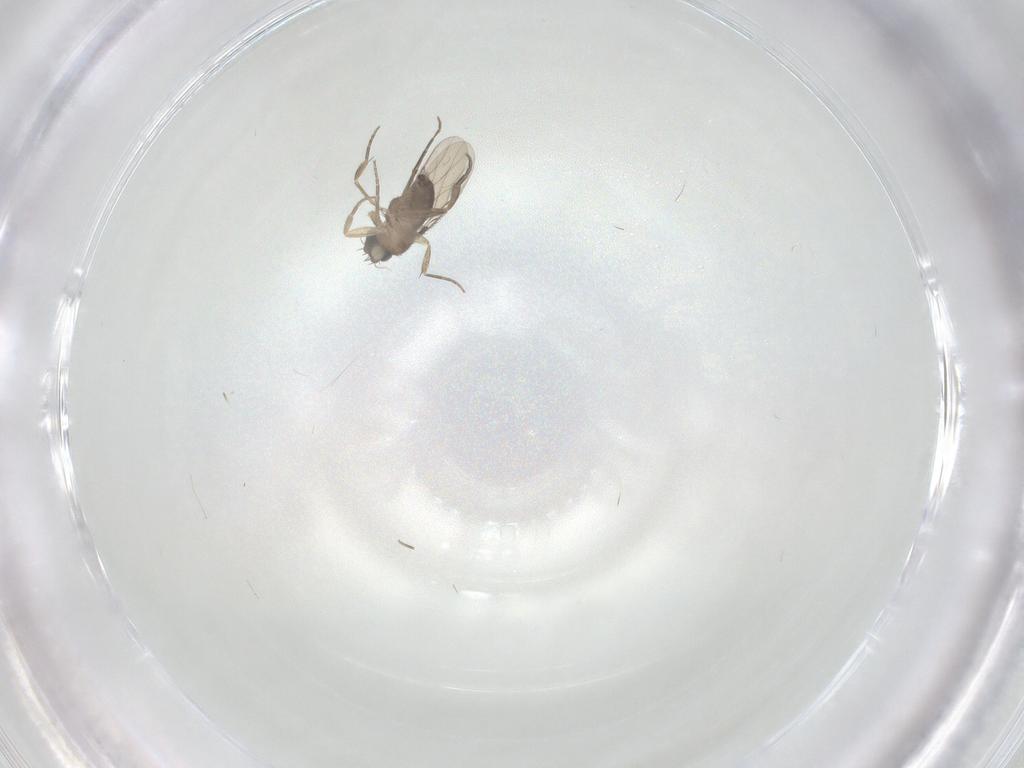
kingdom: Animalia
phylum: Arthropoda
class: Insecta
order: Diptera
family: Phoridae
